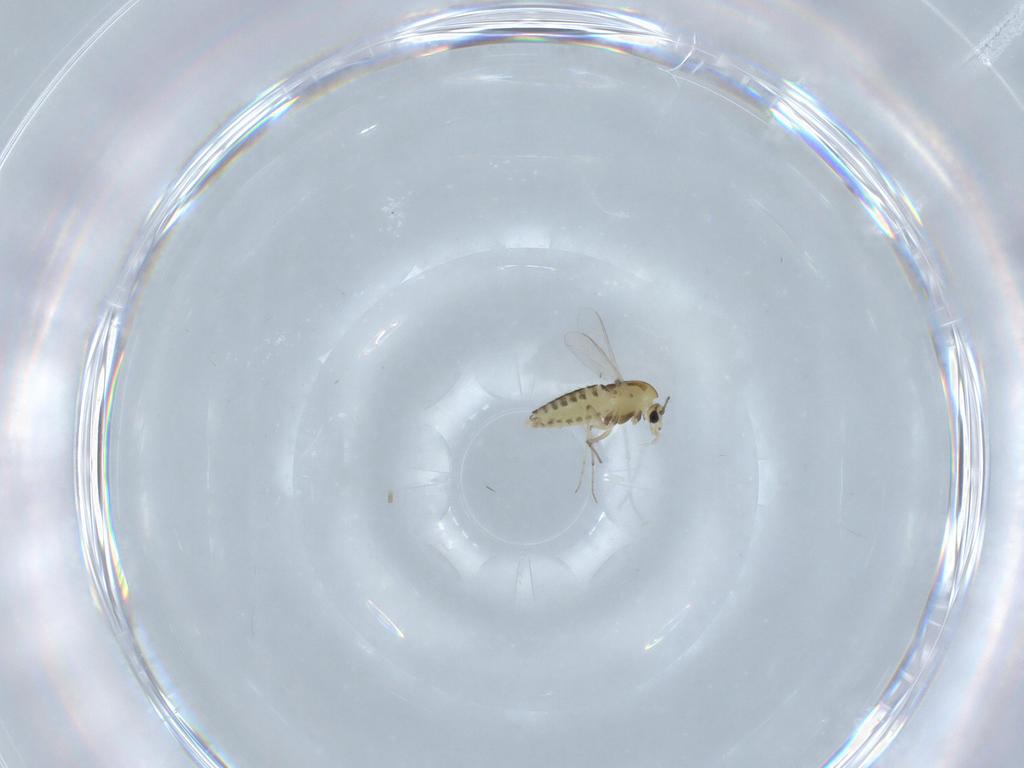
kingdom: Animalia
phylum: Arthropoda
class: Insecta
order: Diptera
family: Chironomidae
